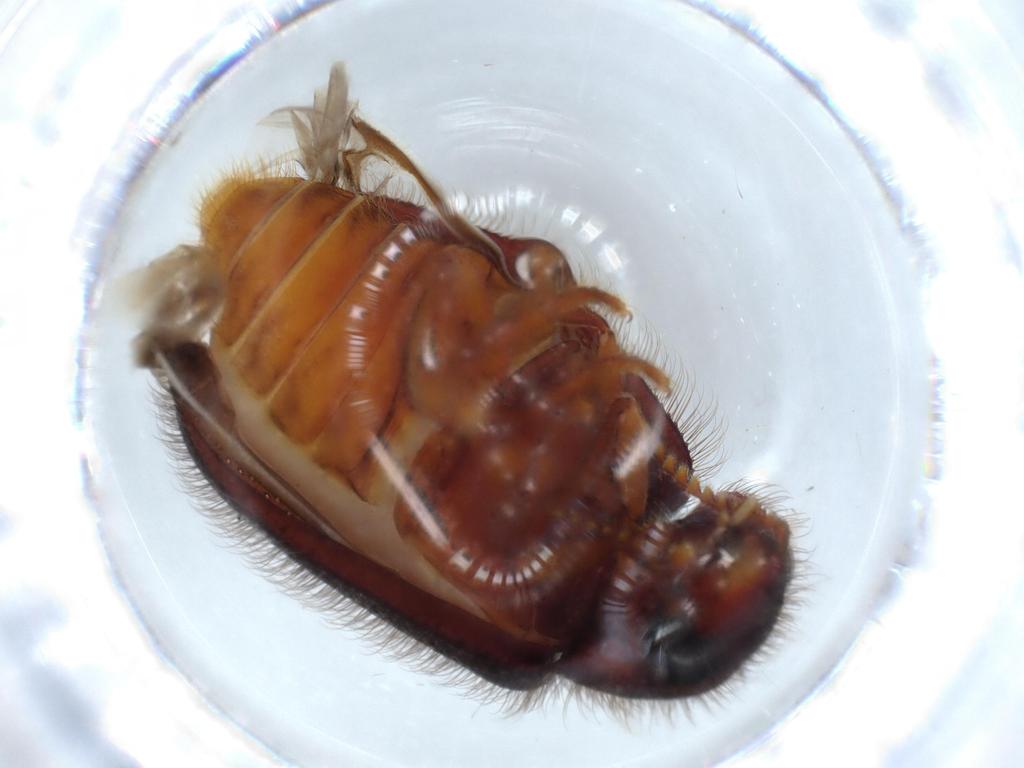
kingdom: Animalia
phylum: Arthropoda
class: Insecta
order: Coleoptera
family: Rhadalidae
